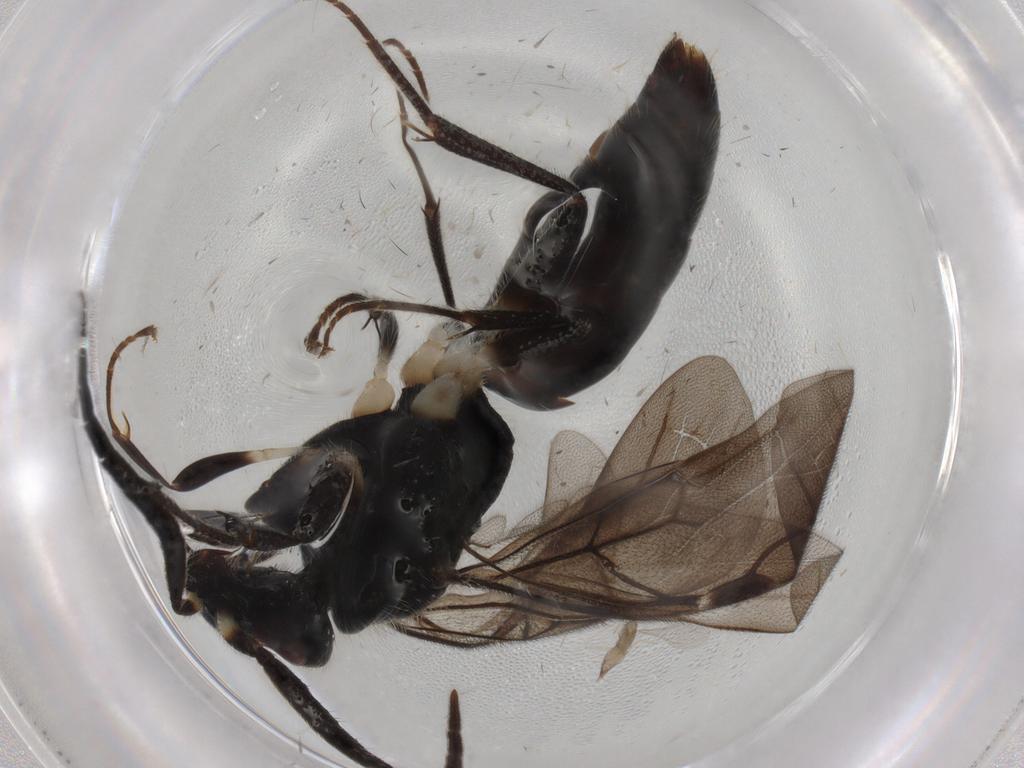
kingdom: Animalia
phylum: Arthropoda
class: Insecta
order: Hymenoptera
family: Bethylidae
